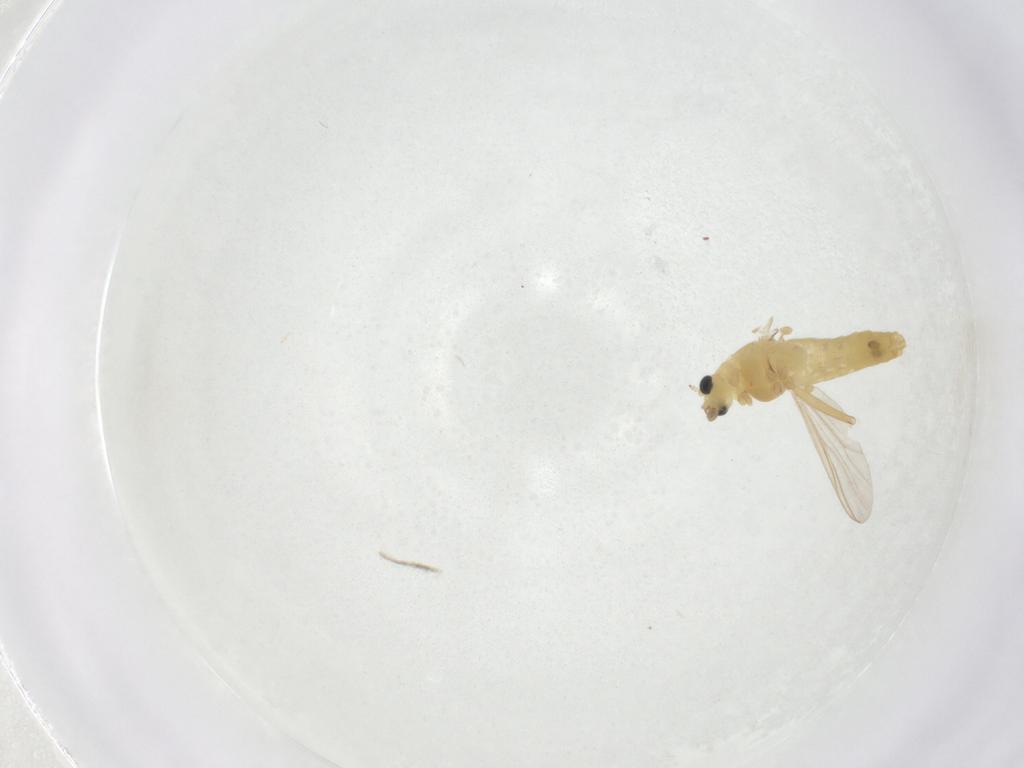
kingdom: Animalia
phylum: Arthropoda
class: Insecta
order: Diptera
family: Chironomidae
